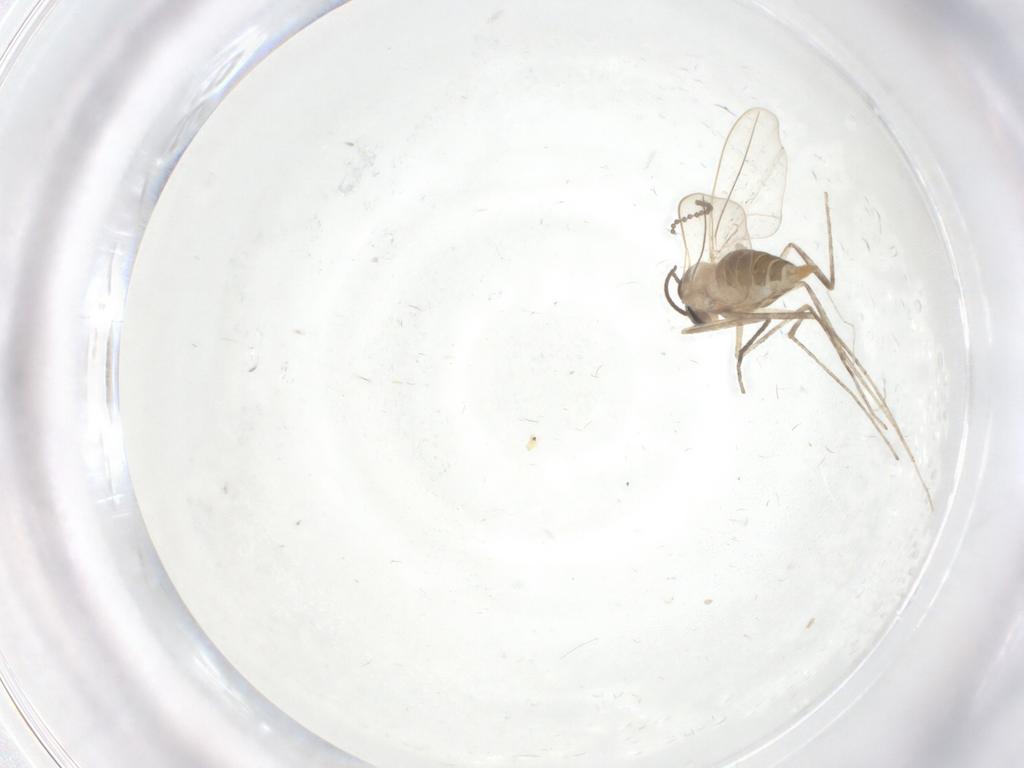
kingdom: Animalia
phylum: Arthropoda
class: Insecta
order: Diptera
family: Cecidomyiidae
